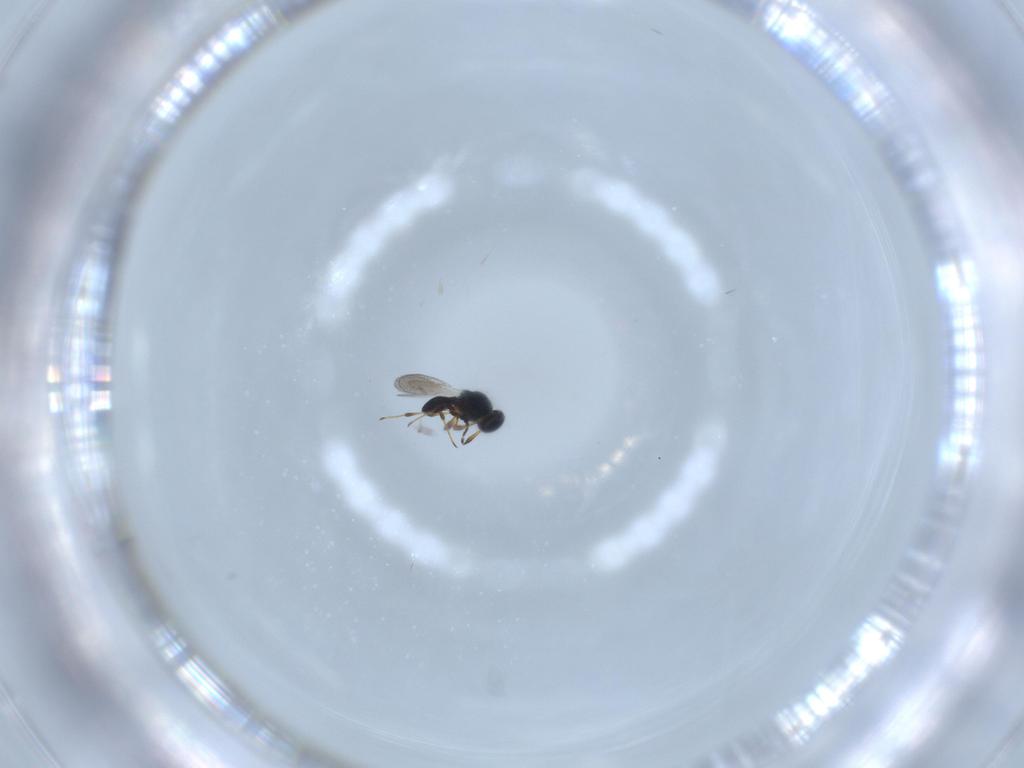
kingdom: Animalia
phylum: Arthropoda
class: Insecta
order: Hymenoptera
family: Platygastridae
